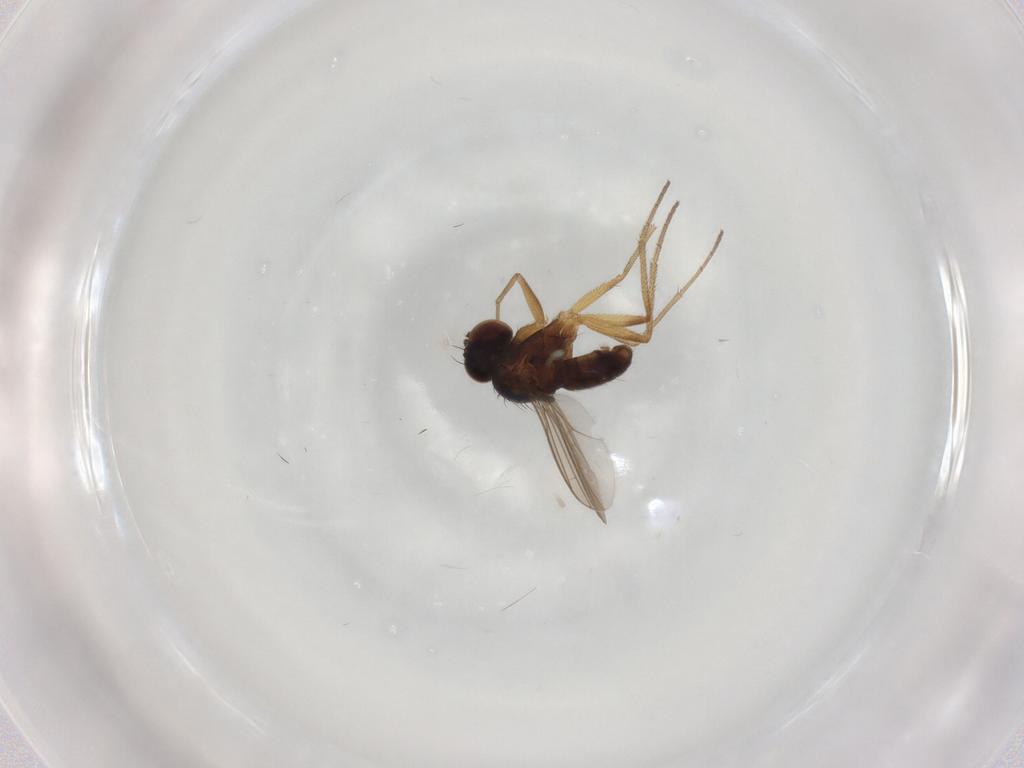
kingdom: Animalia
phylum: Arthropoda
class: Insecta
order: Diptera
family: Dolichopodidae
